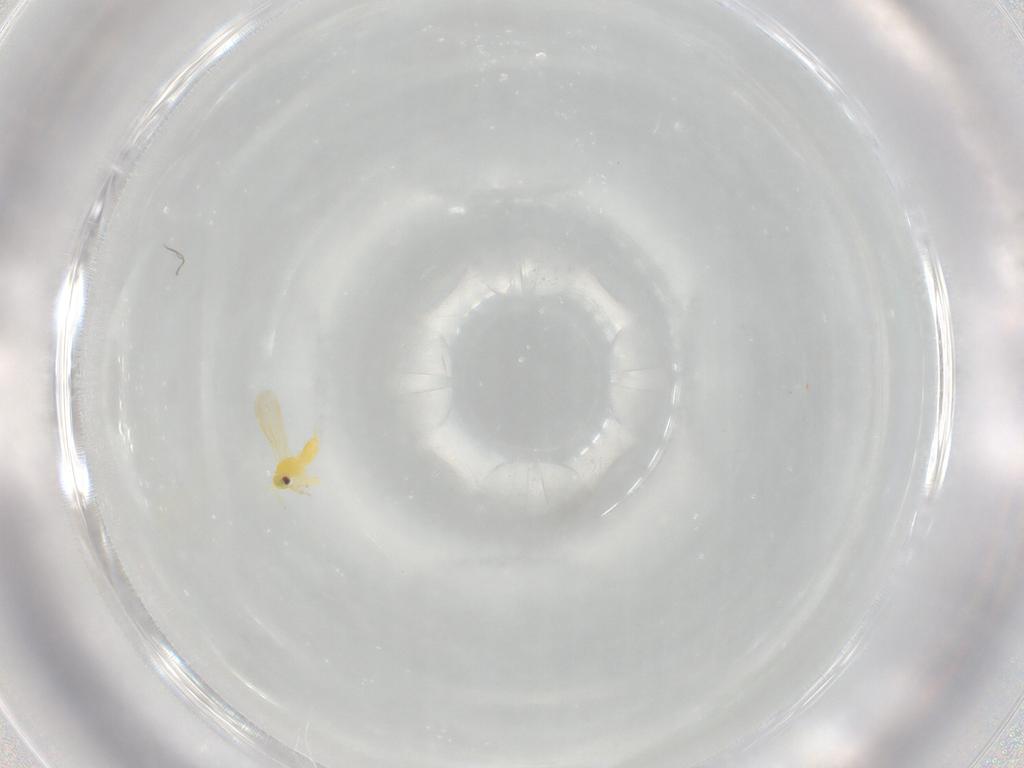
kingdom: Animalia
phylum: Arthropoda
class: Insecta
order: Hemiptera
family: Aleyrodidae
